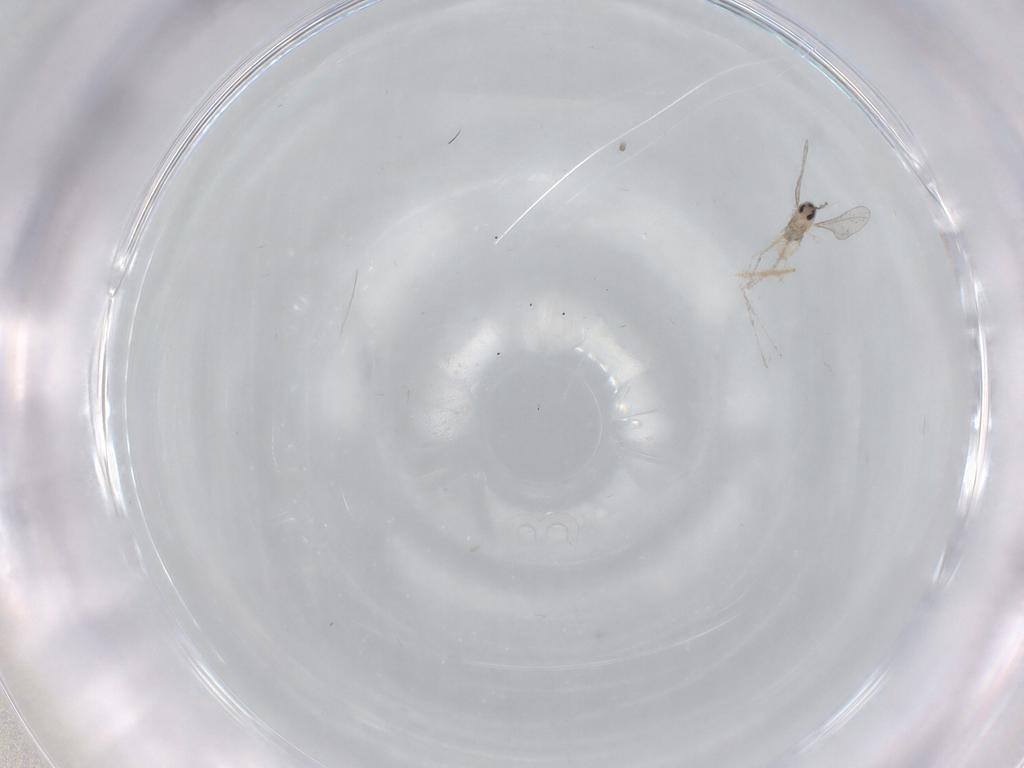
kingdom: Animalia
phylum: Arthropoda
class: Insecta
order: Diptera
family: Cecidomyiidae
